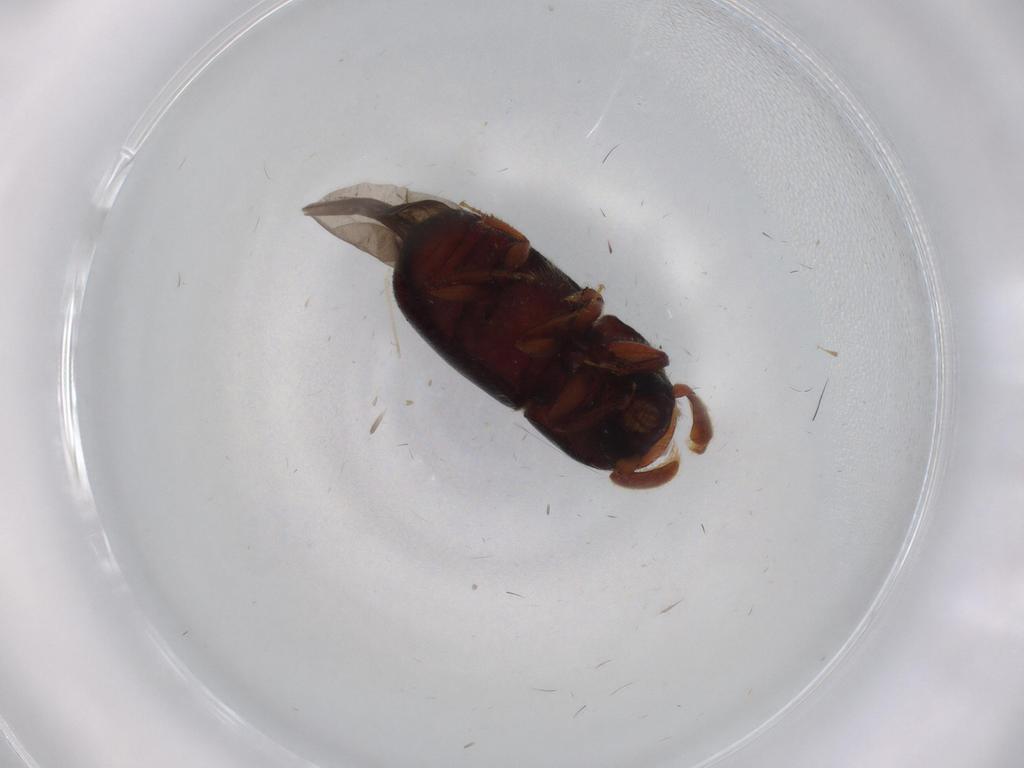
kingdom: Animalia
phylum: Arthropoda
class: Insecta
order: Coleoptera
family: Curculionidae
